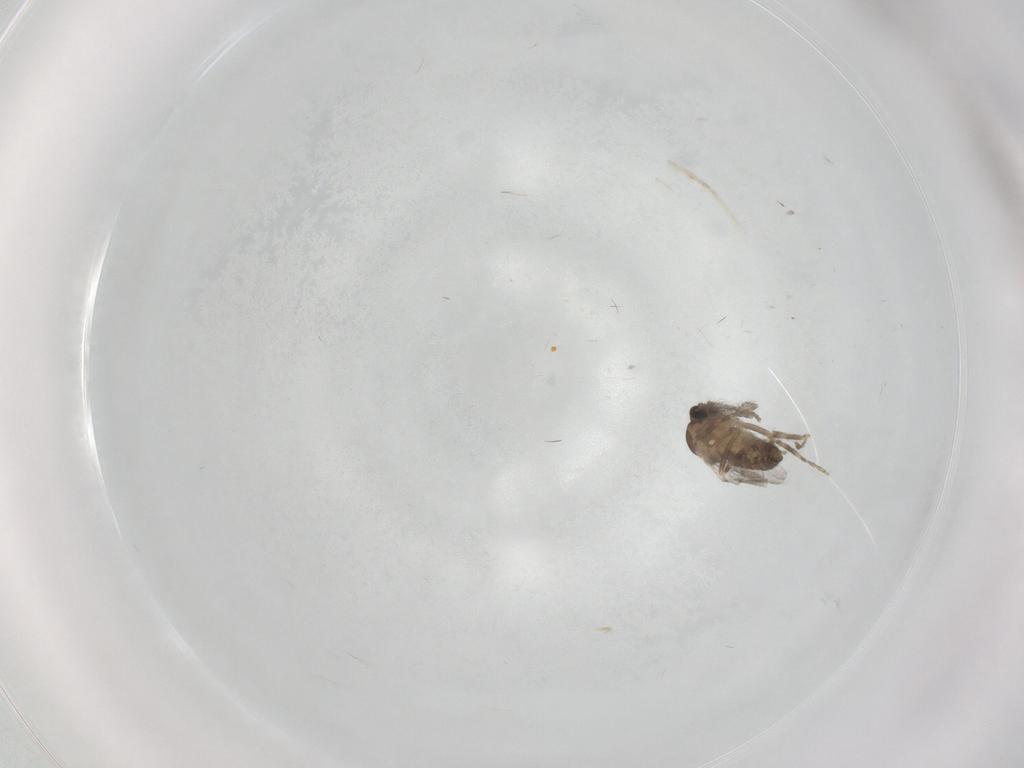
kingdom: Animalia
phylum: Arthropoda
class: Insecta
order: Diptera
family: Ceratopogonidae
